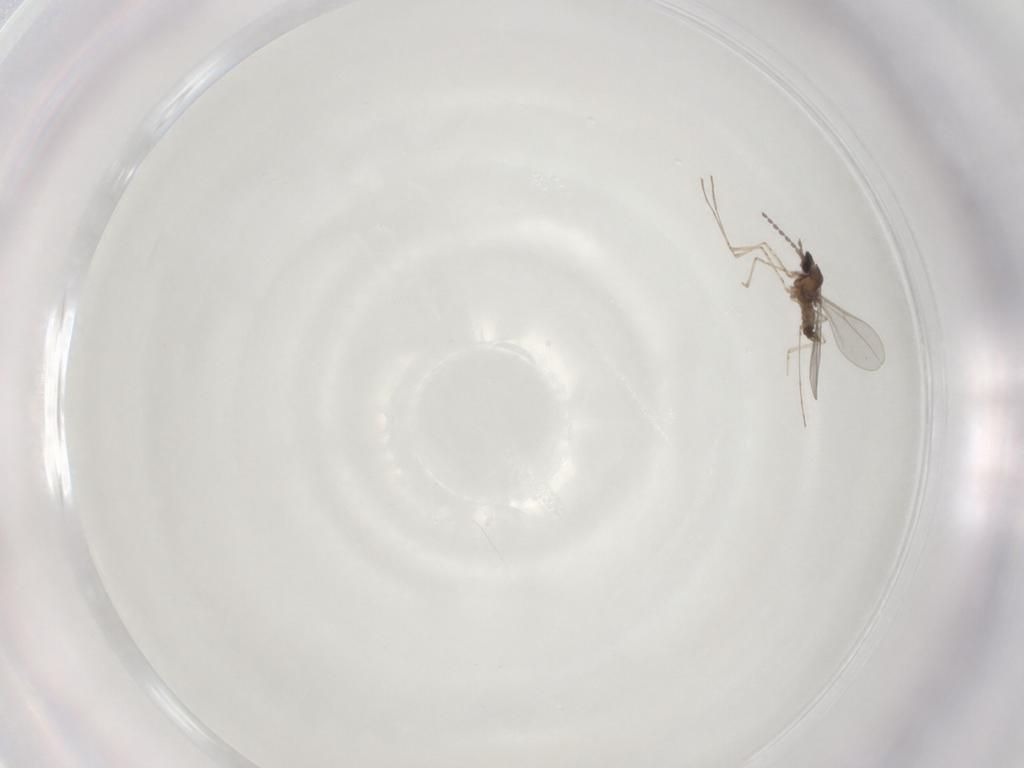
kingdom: Animalia
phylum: Arthropoda
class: Insecta
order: Diptera
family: Cecidomyiidae
